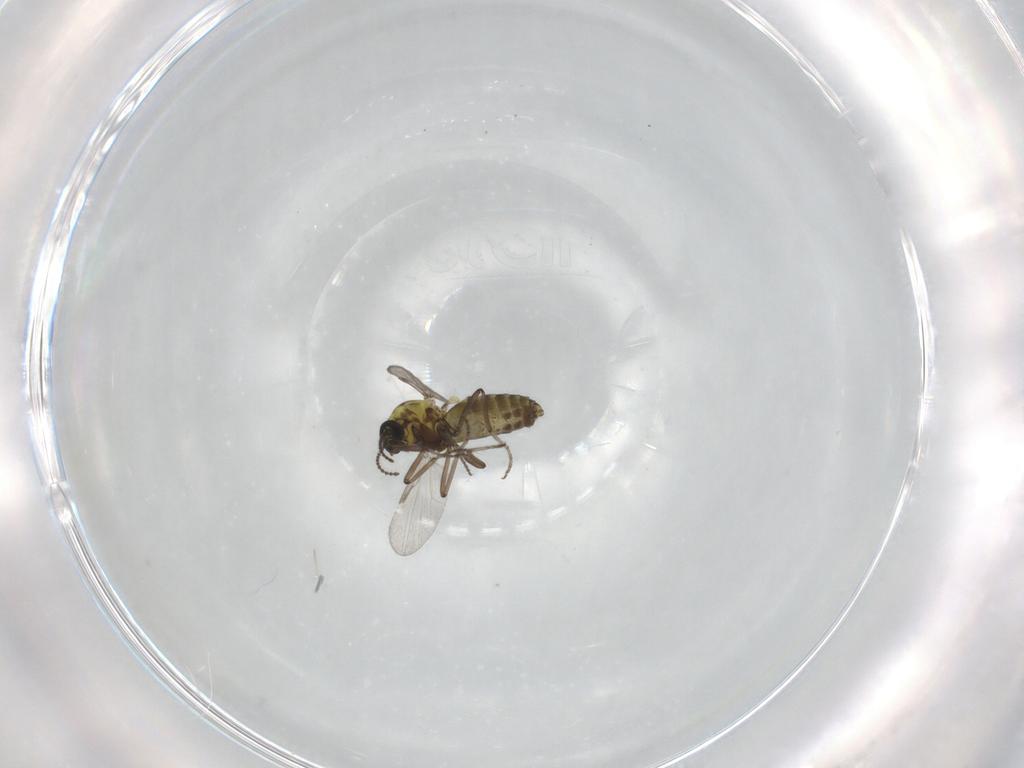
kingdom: Animalia
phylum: Arthropoda
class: Insecta
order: Diptera
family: Ceratopogonidae
